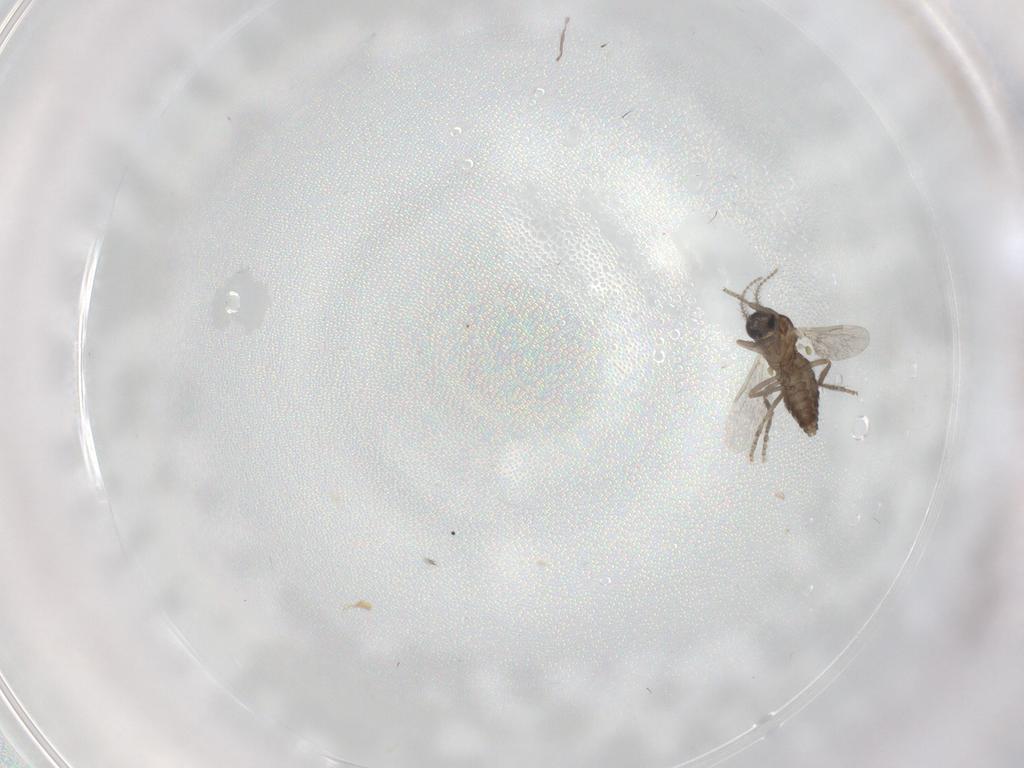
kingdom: Animalia
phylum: Arthropoda
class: Insecta
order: Diptera
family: Ceratopogonidae
